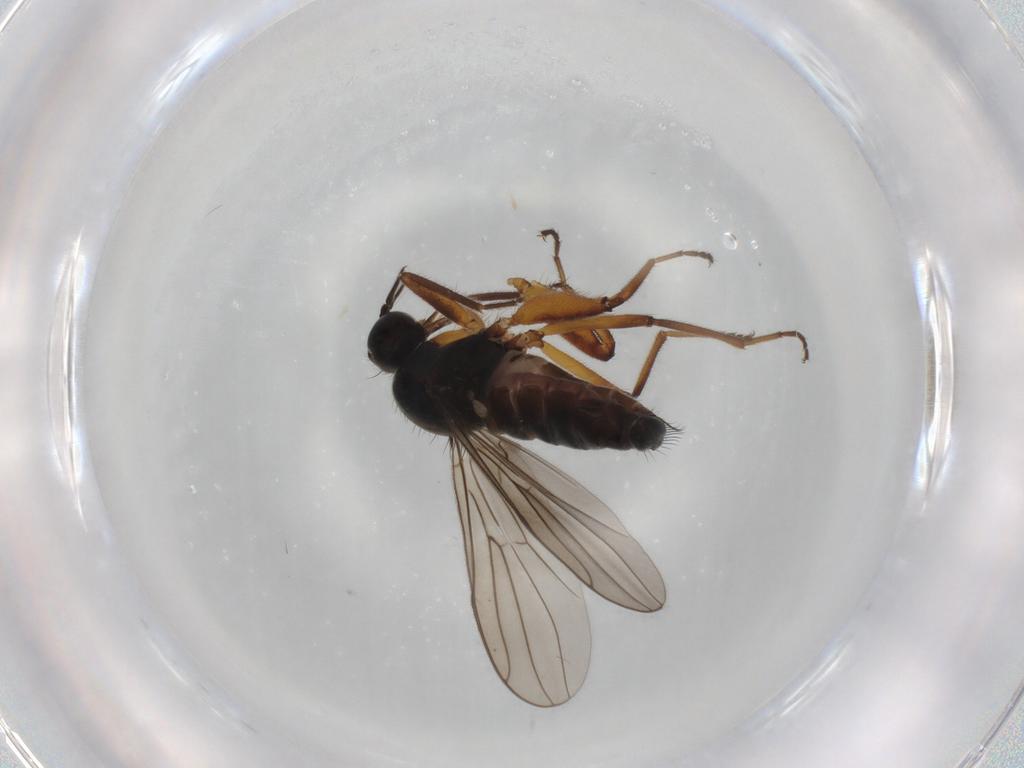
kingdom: Animalia
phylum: Arthropoda
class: Insecta
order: Diptera
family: Hybotidae
